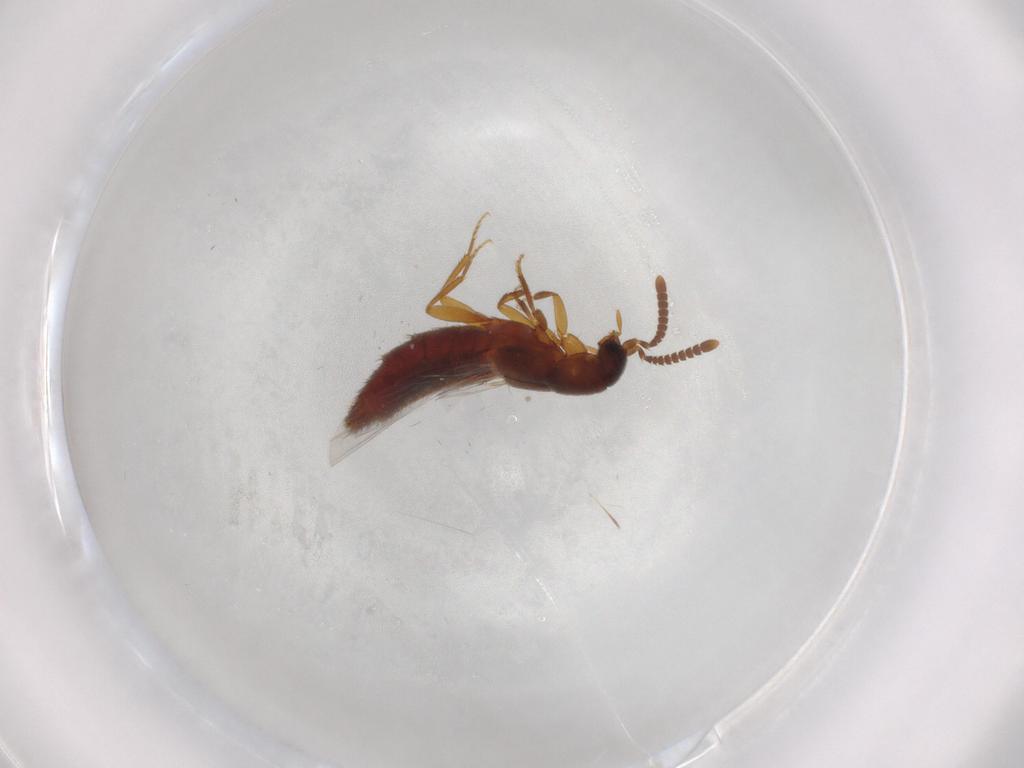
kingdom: Animalia
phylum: Arthropoda
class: Insecta
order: Coleoptera
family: Staphylinidae
